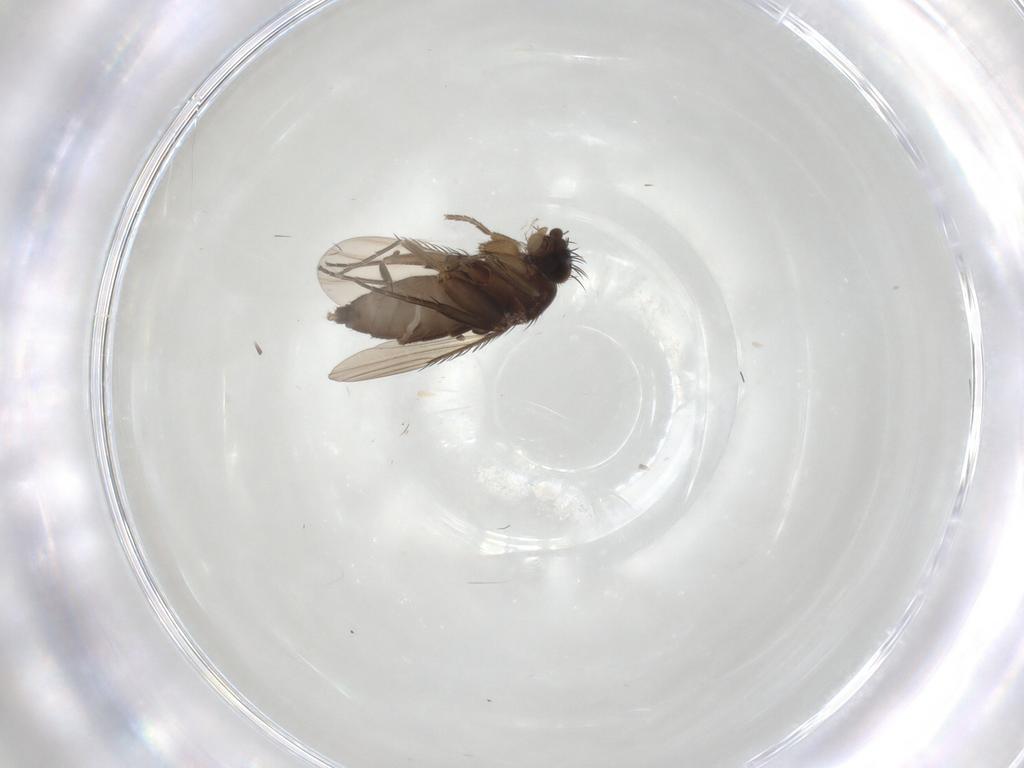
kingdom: Animalia
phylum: Arthropoda
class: Insecta
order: Diptera
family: Phoridae
